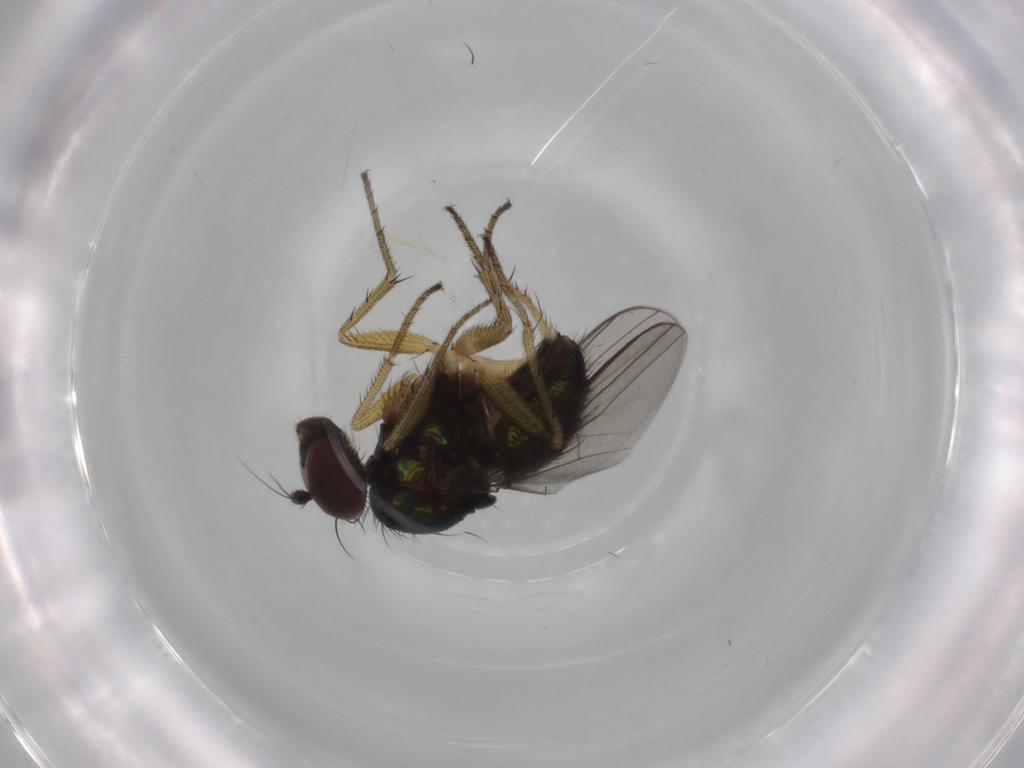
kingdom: Animalia
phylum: Arthropoda
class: Insecta
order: Diptera
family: Dolichopodidae
